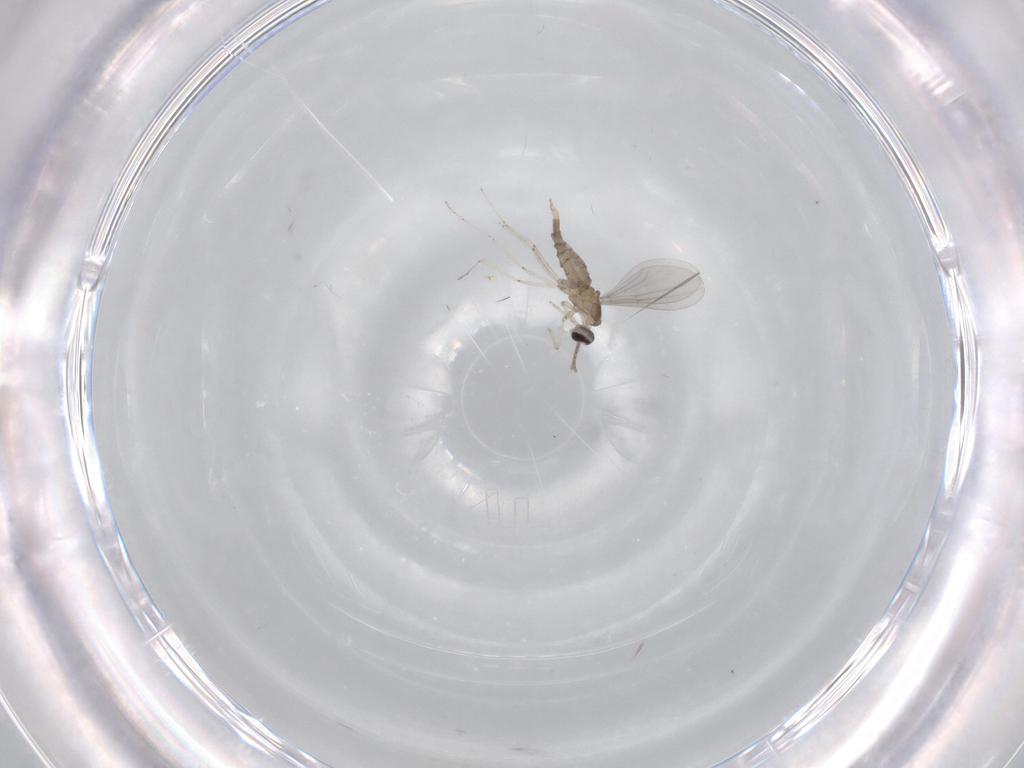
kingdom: Animalia
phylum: Arthropoda
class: Insecta
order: Diptera
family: Cecidomyiidae
